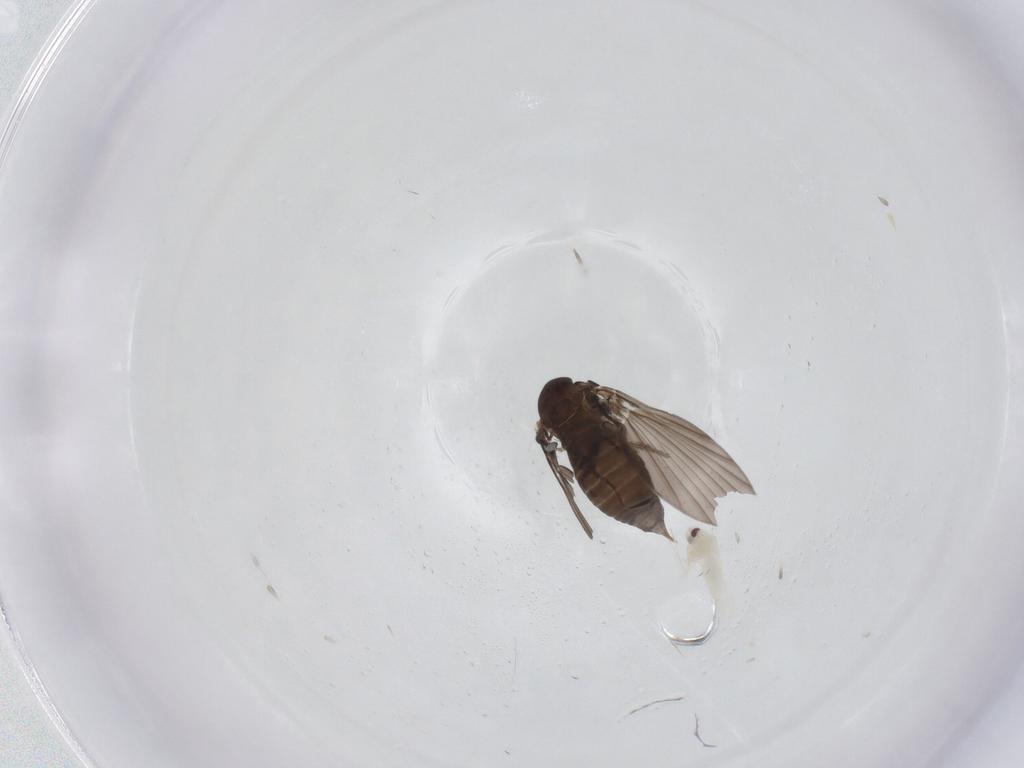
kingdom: Animalia
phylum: Arthropoda
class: Insecta
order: Diptera
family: Psychodidae
